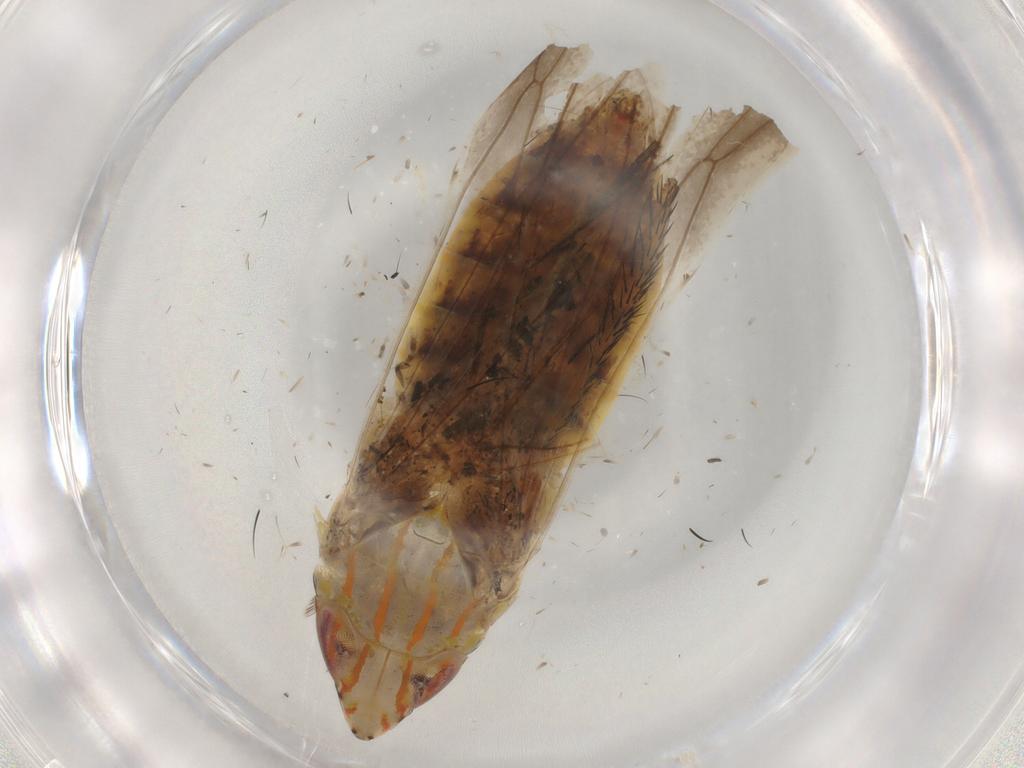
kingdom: Animalia
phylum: Arthropoda
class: Insecta
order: Hemiptera
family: Cicadellidae
